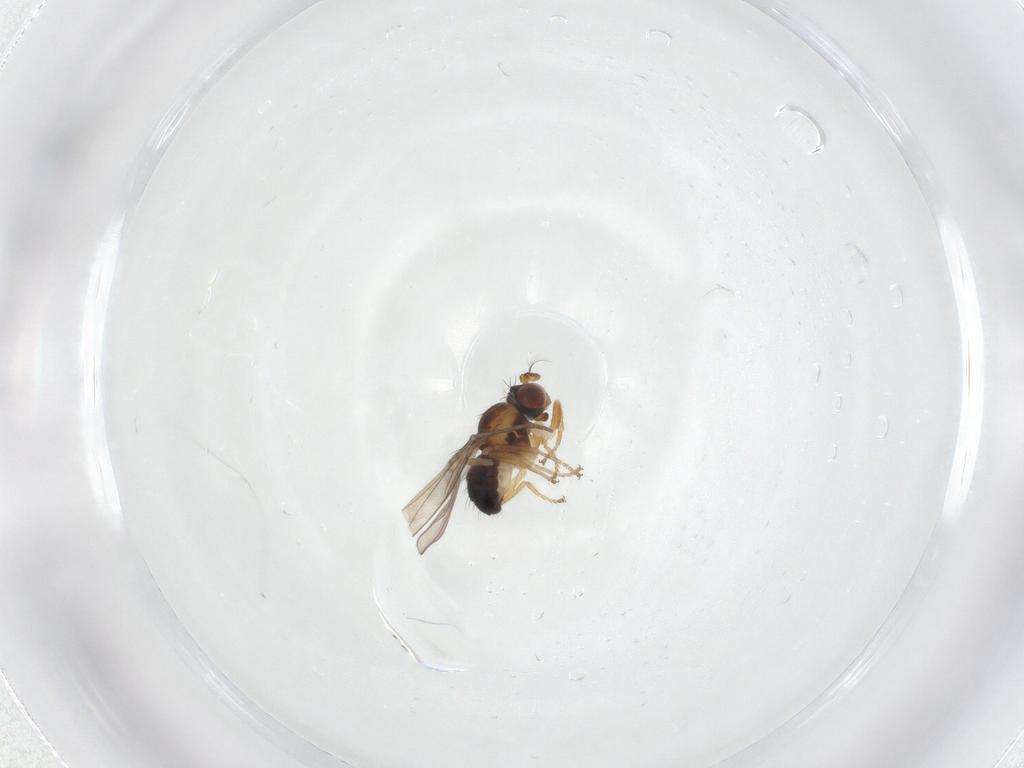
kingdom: Animalia
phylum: Arthropoda
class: Insecta
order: Diptera
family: Ephydridae
